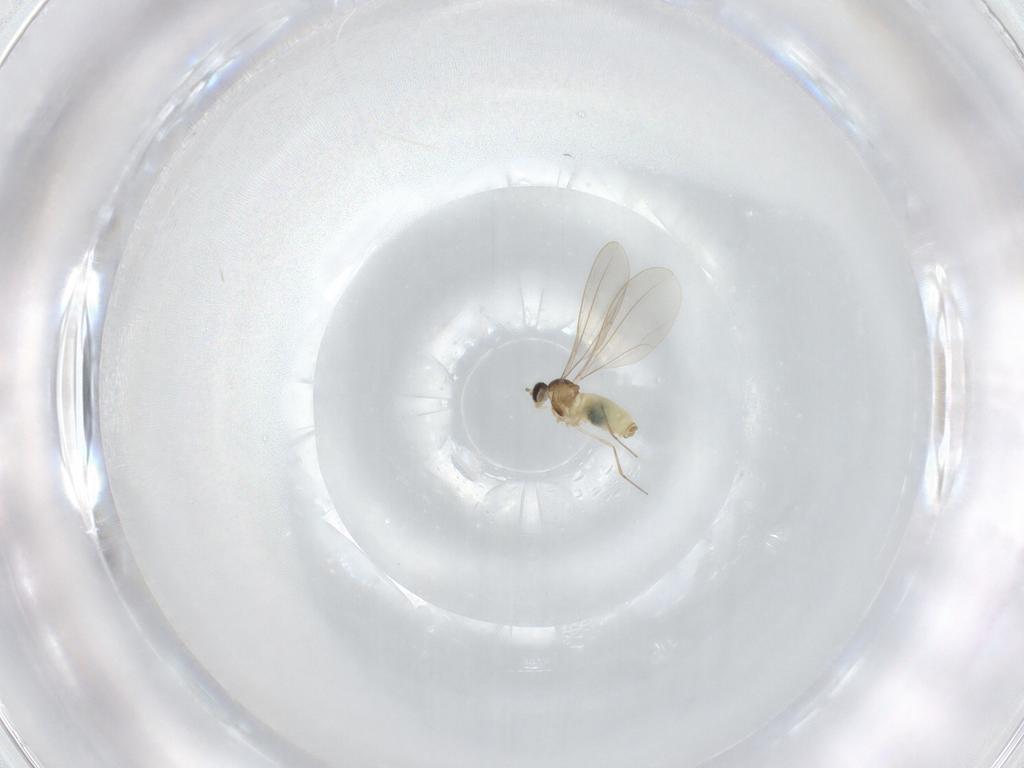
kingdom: Animalia
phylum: Arthropoda
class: Insecta
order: Diptera
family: Cecidomyiidae
